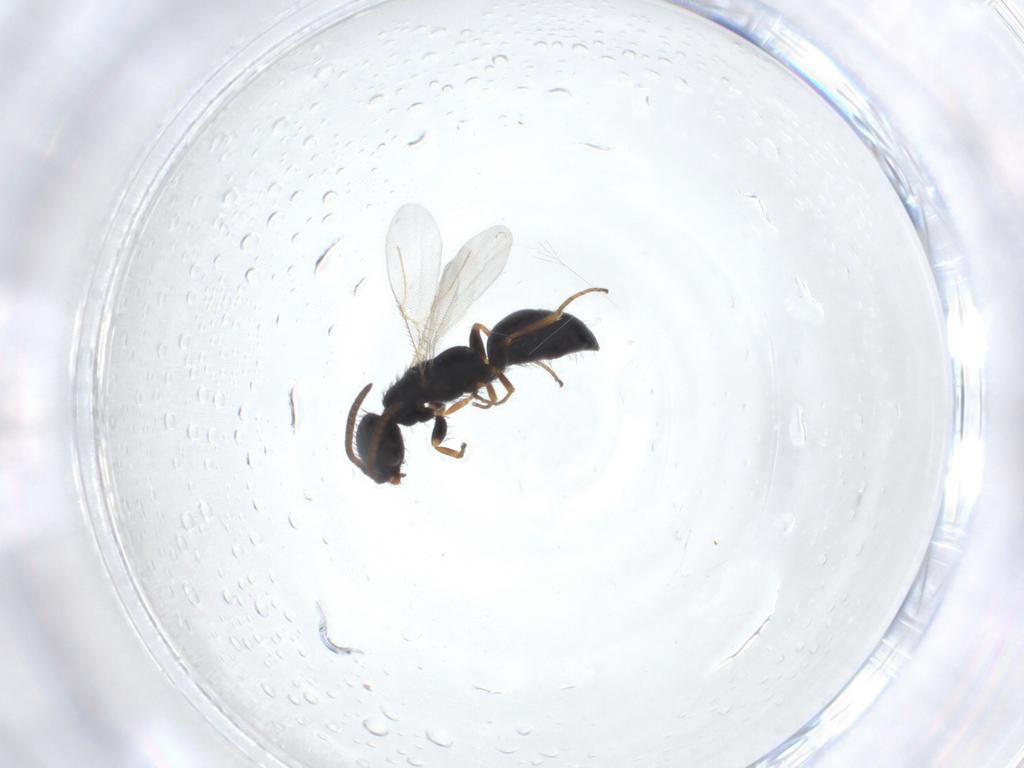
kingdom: Animalia
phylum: Arthropoda
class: Insecta
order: Hymenoptera
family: Bethylidae
